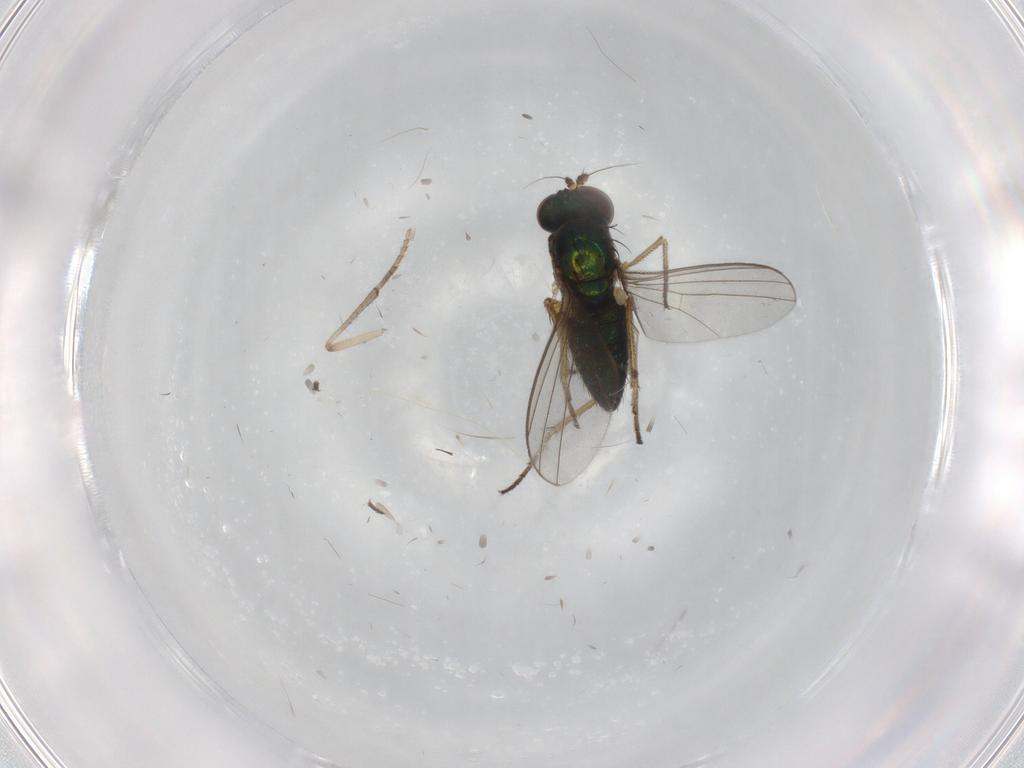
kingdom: Animalia
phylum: Arthropoda
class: Insecta
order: Diptera
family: Psychodidae
